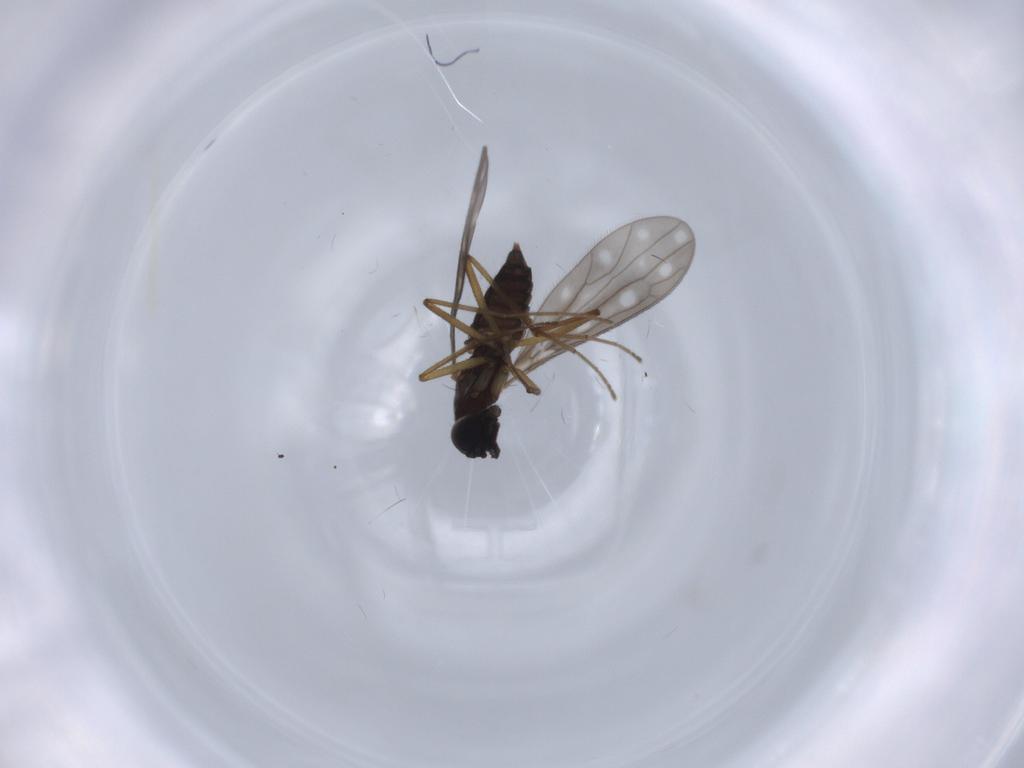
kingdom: Animalia
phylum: Arthropoda
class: Insecta
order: Diptera
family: Empididae
